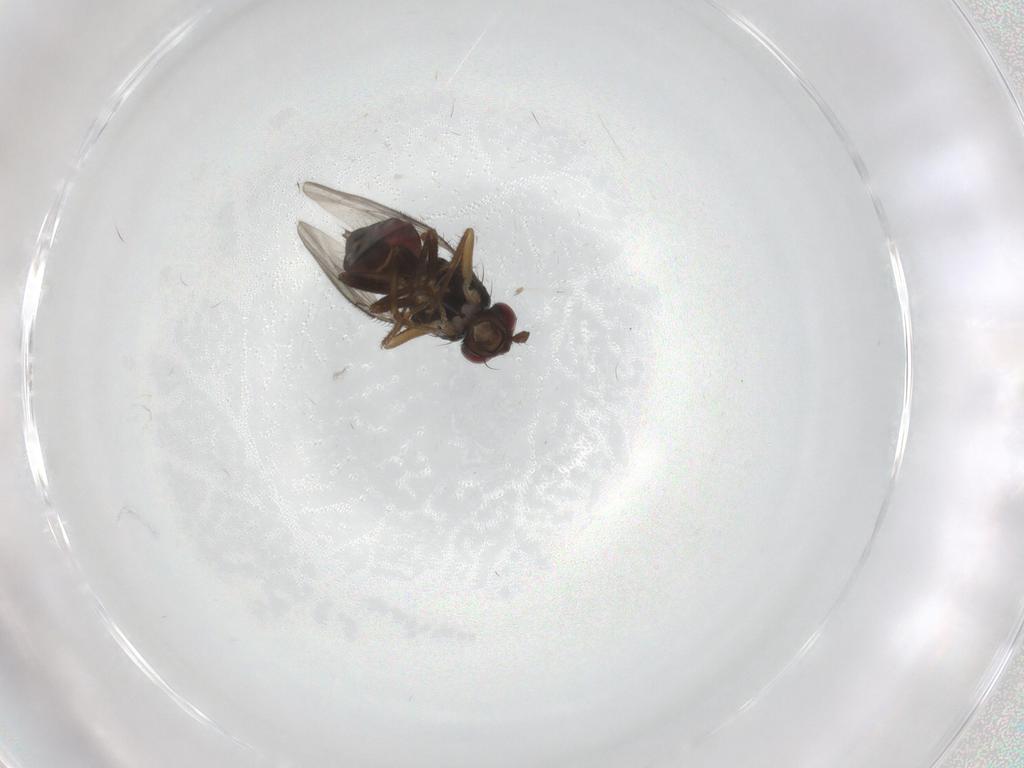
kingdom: Animalia
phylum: Arthropoda
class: Insecta
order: Diptera
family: Sphaeroceridae
